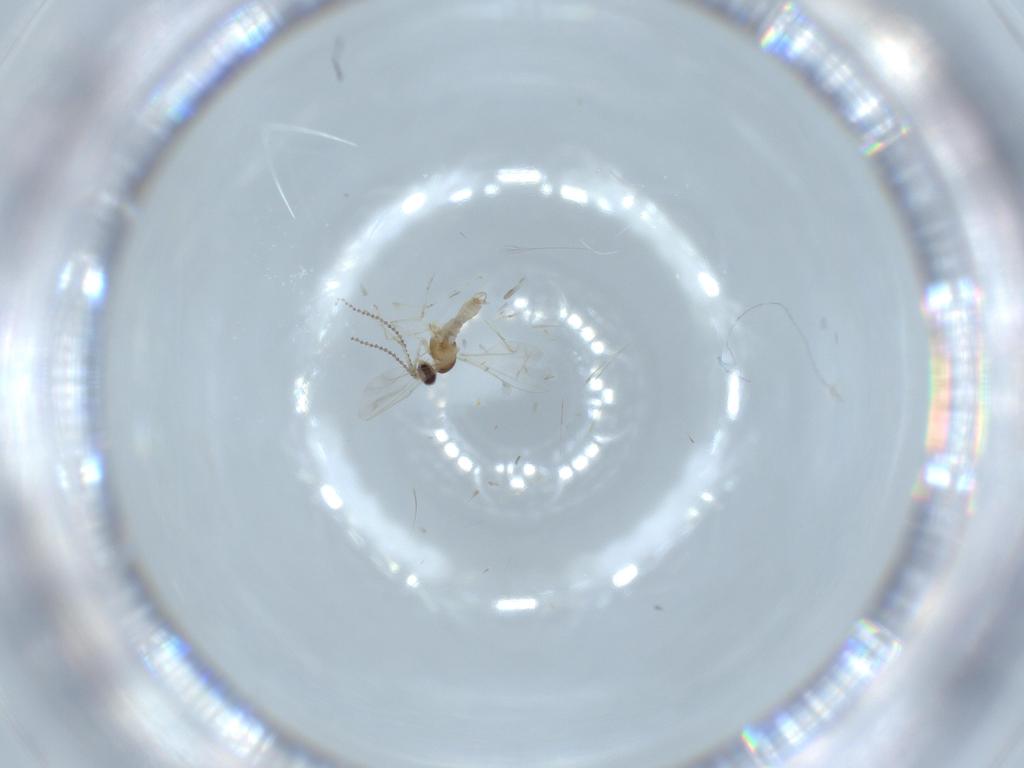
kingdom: Animalia
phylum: Arthropoda
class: Insecta
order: Diptera
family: Cecidomyiidae
